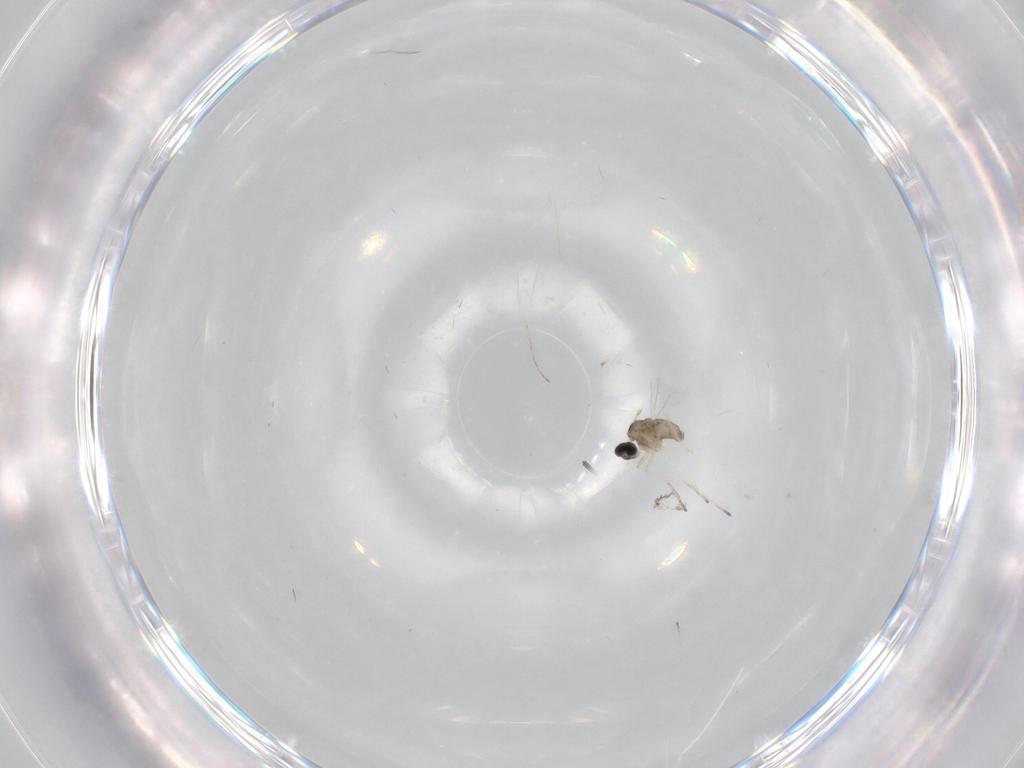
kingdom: Animalia
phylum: Arthropoda
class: Insecta
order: Diptera
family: Cecidomyiidae
